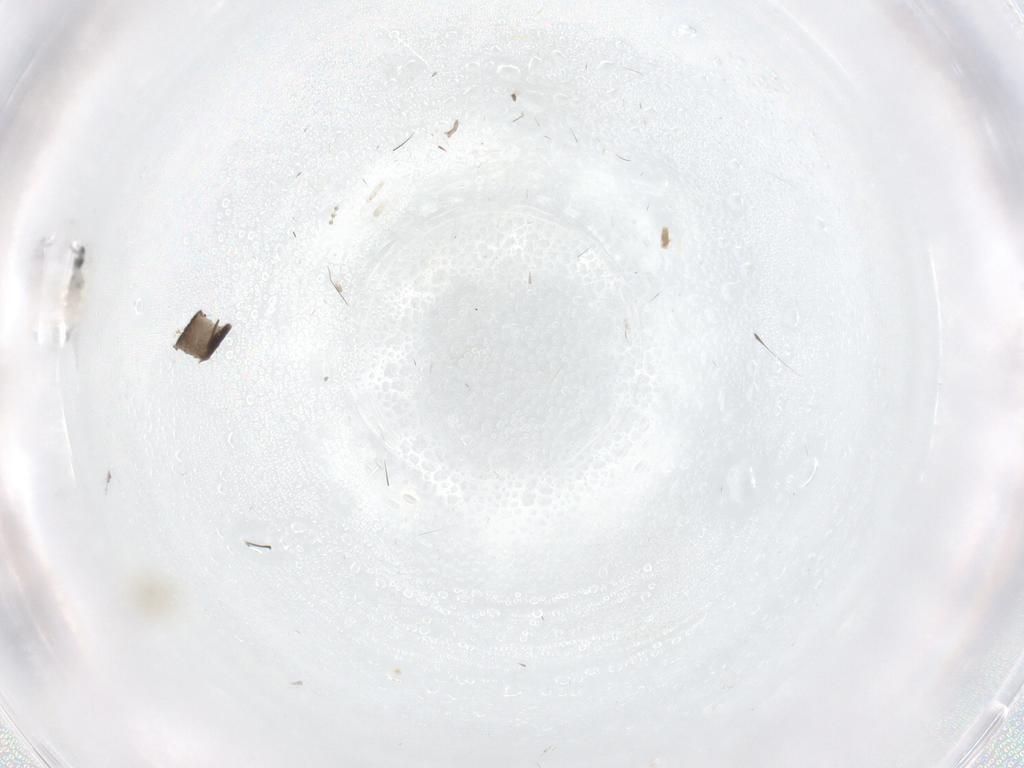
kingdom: Animalia
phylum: Arthropoda
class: Insecta
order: Diptera
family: Psychodidae
